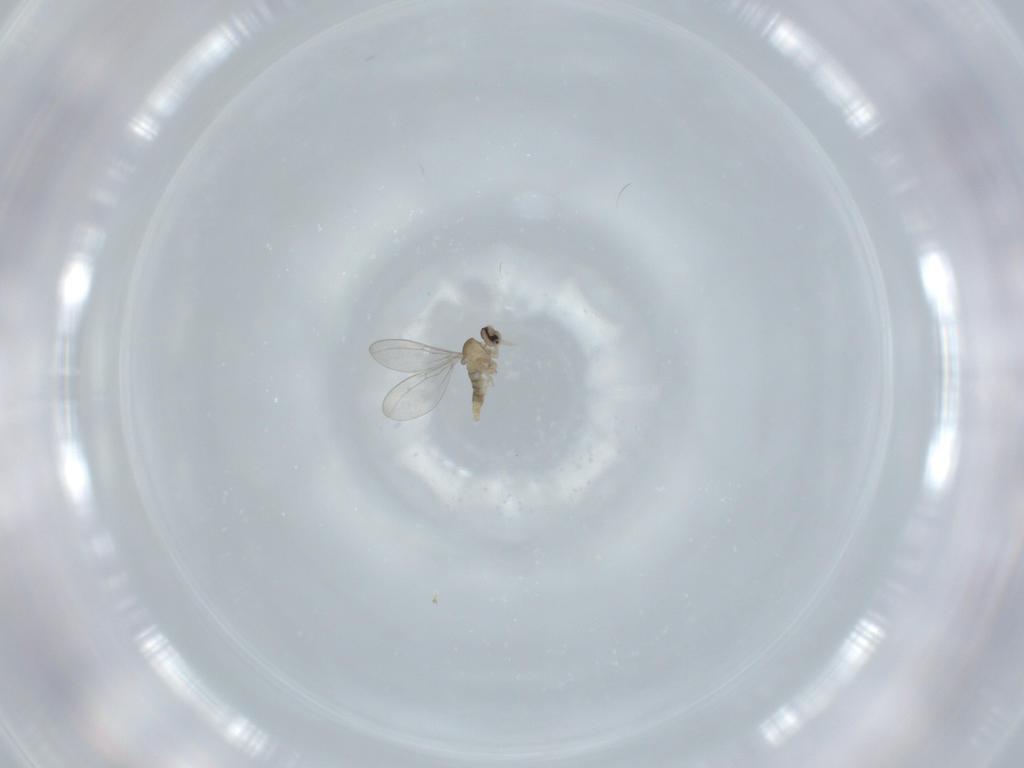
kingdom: Animalia
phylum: Arthropoda
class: Insecta
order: Diptera
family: Cecidomyiidae
